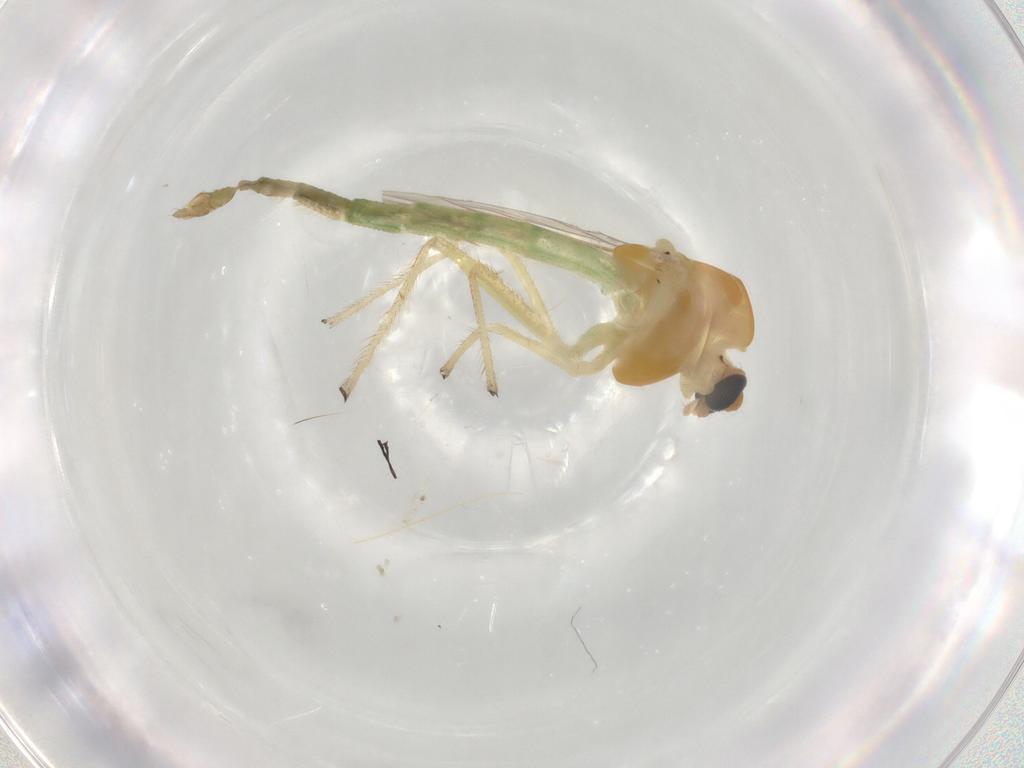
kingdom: Animalia
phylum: Arthropoda
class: Insecta
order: Diptera
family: Chironomidae
